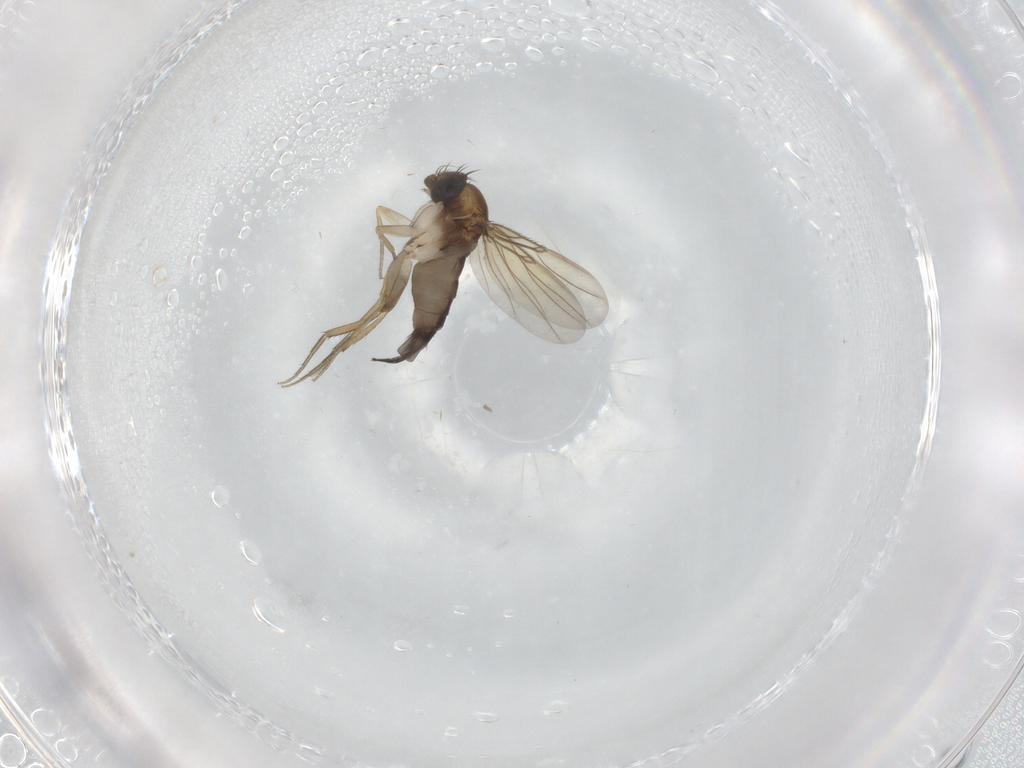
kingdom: Animalia
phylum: Arthropoda
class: Insecta
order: Diptera
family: Phoridae
